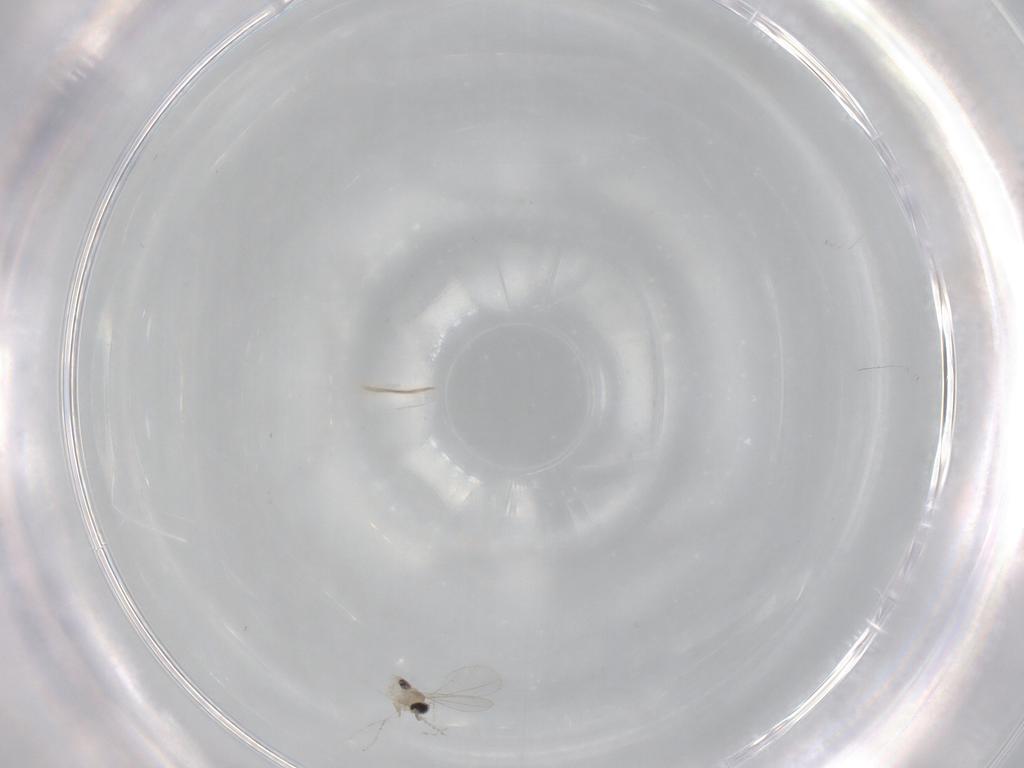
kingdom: Animalia
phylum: Arthropoda
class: Insecta
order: Diptera
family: Cecidomyiidae
